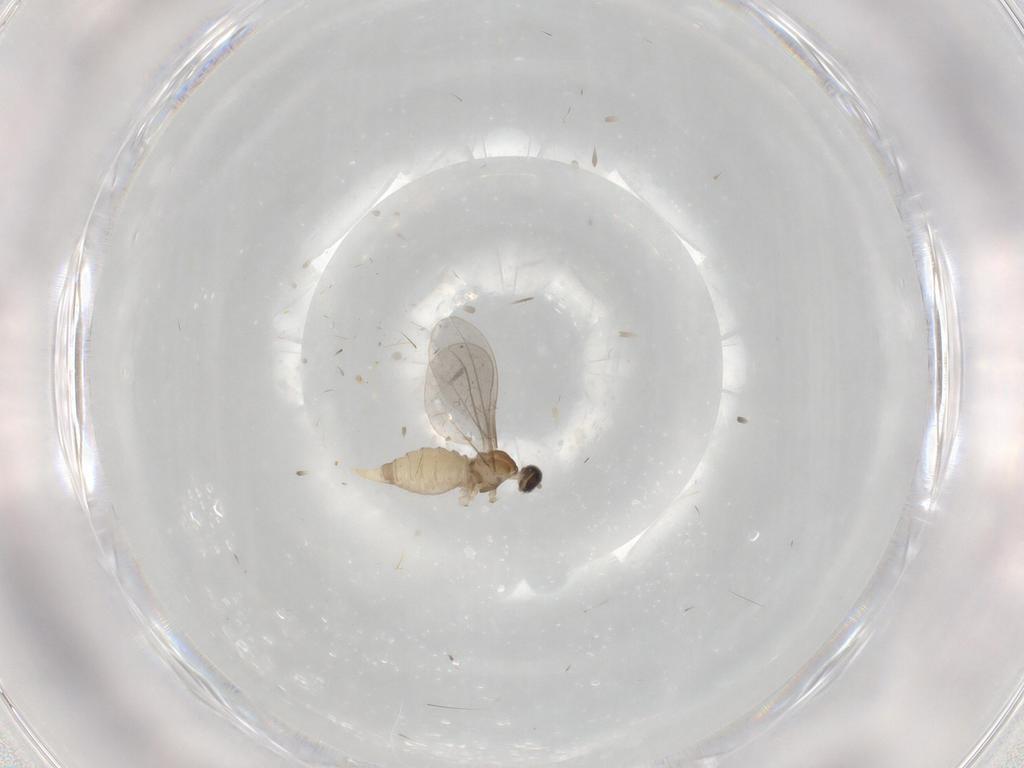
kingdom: Animalia
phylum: Arthropoda
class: Insecta
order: Diptera
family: Cecidomyiidae
